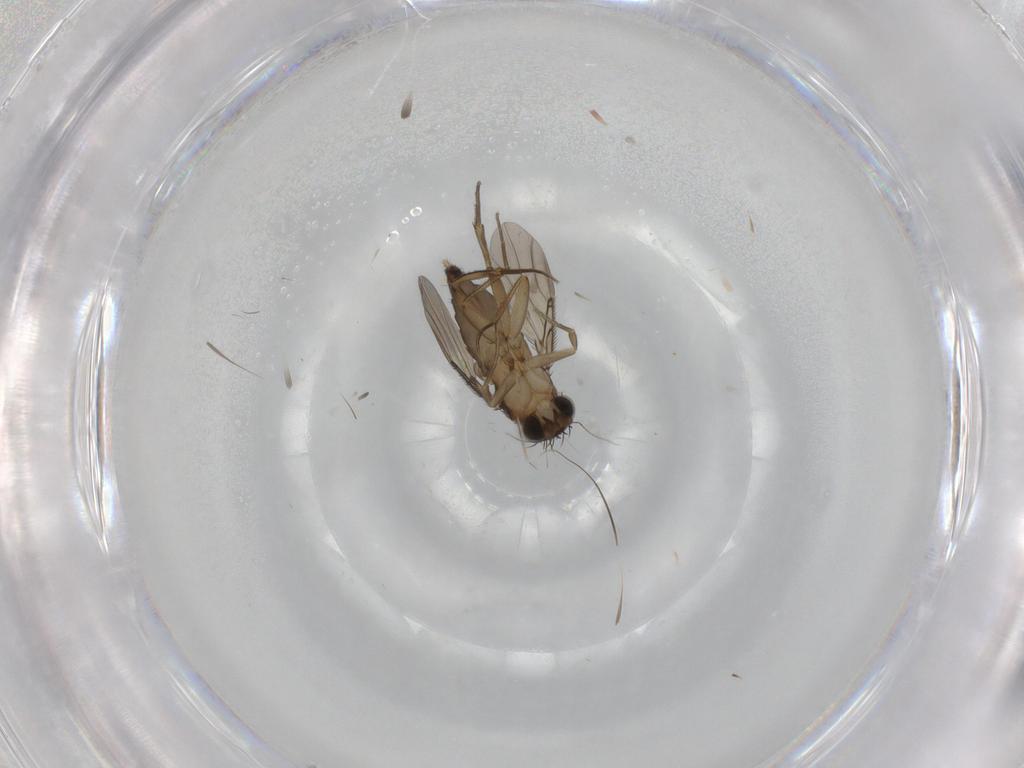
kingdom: Animalia
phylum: Arthropoda
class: Insecta
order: Diptera
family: Phoridae
